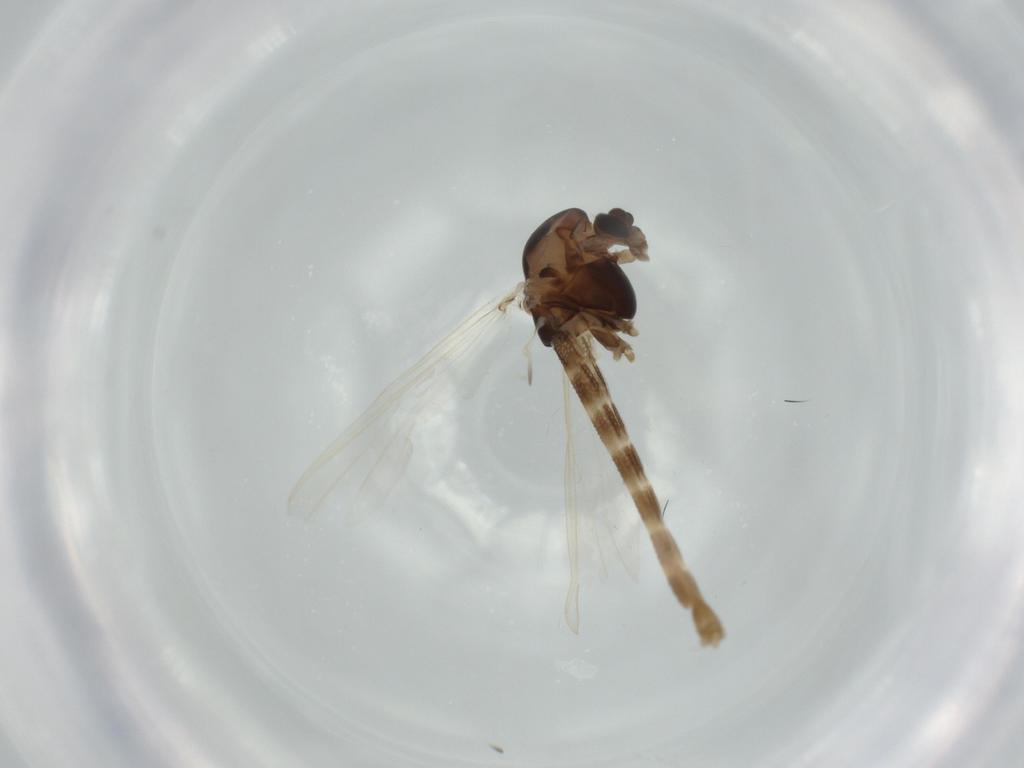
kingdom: Animalia
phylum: Arthropoda
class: Insecta
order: Diptera
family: Chironomidae
